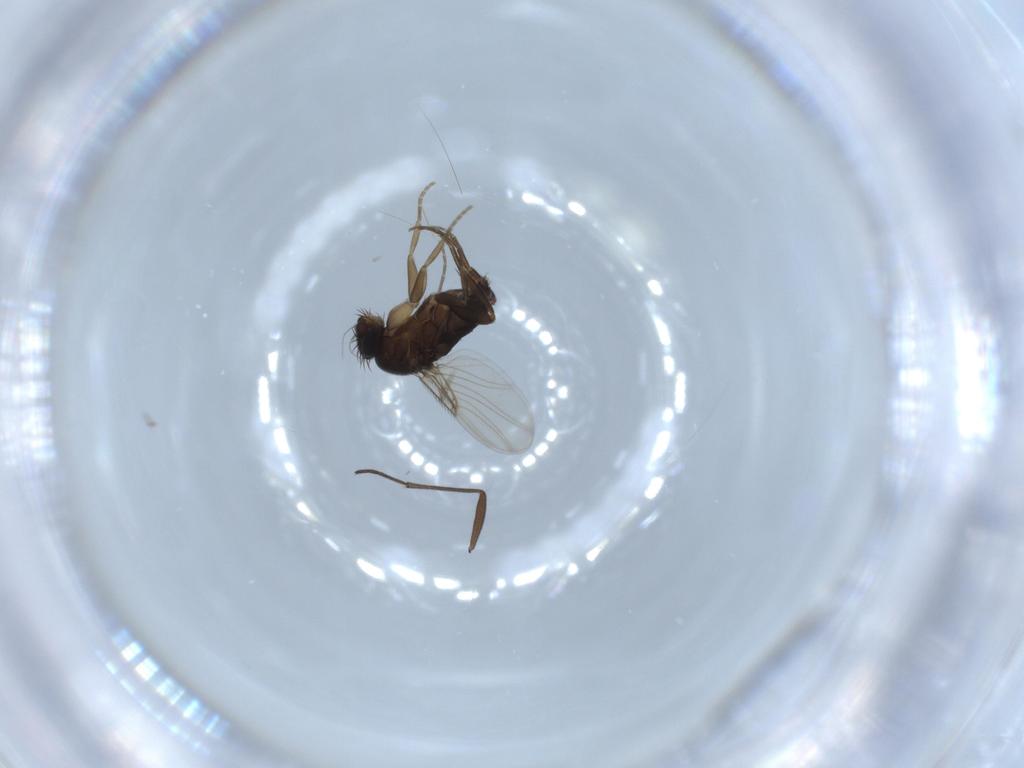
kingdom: Animalia
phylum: Arthropoda
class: Insecta
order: Diptera
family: Phoridae
